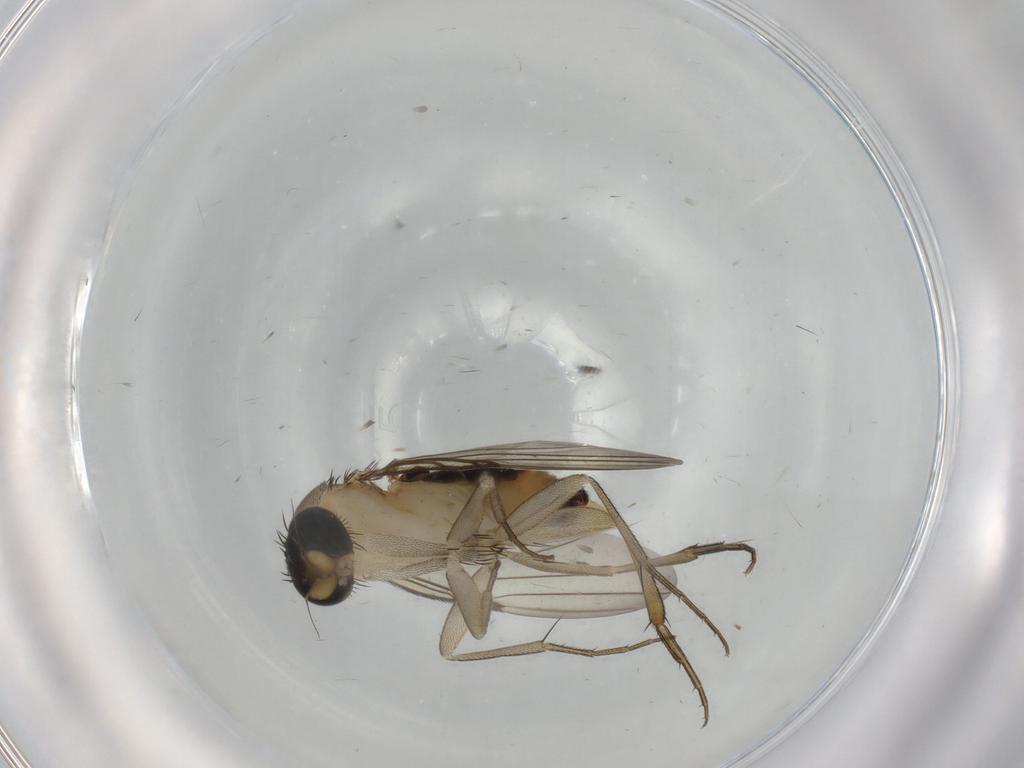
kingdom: Animalia
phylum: Arthropoda
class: Insecta
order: Diptera
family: Phoridae
